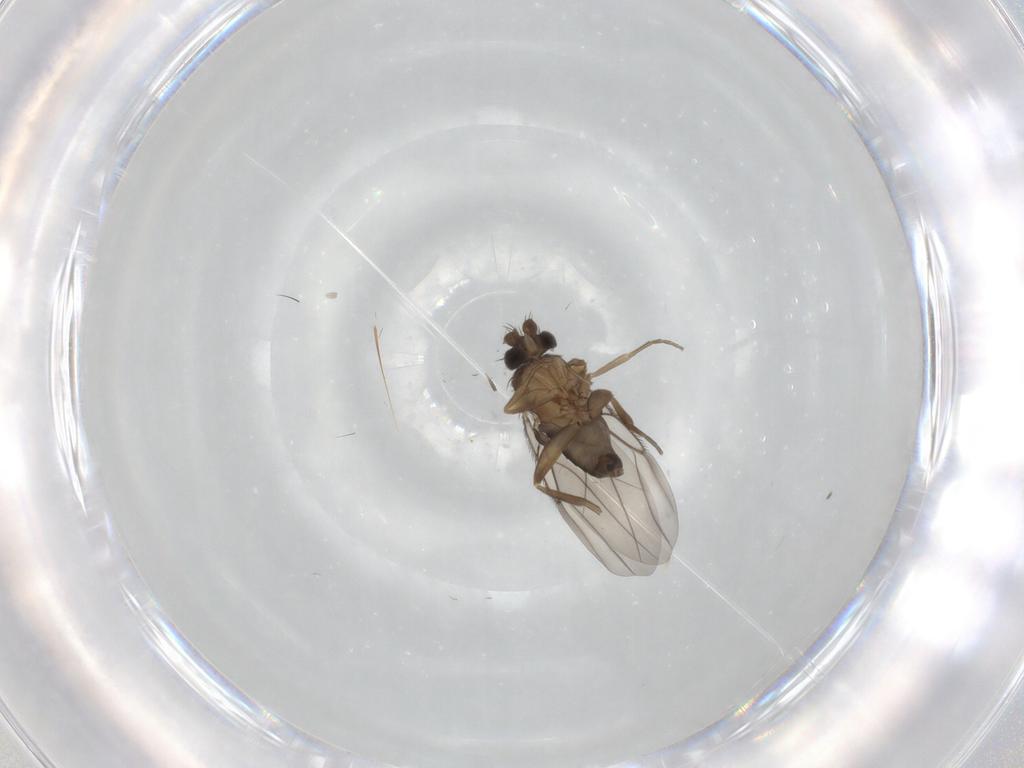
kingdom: Animalia
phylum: Arthropoda
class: Insecta
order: Diptera
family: Phoridae
